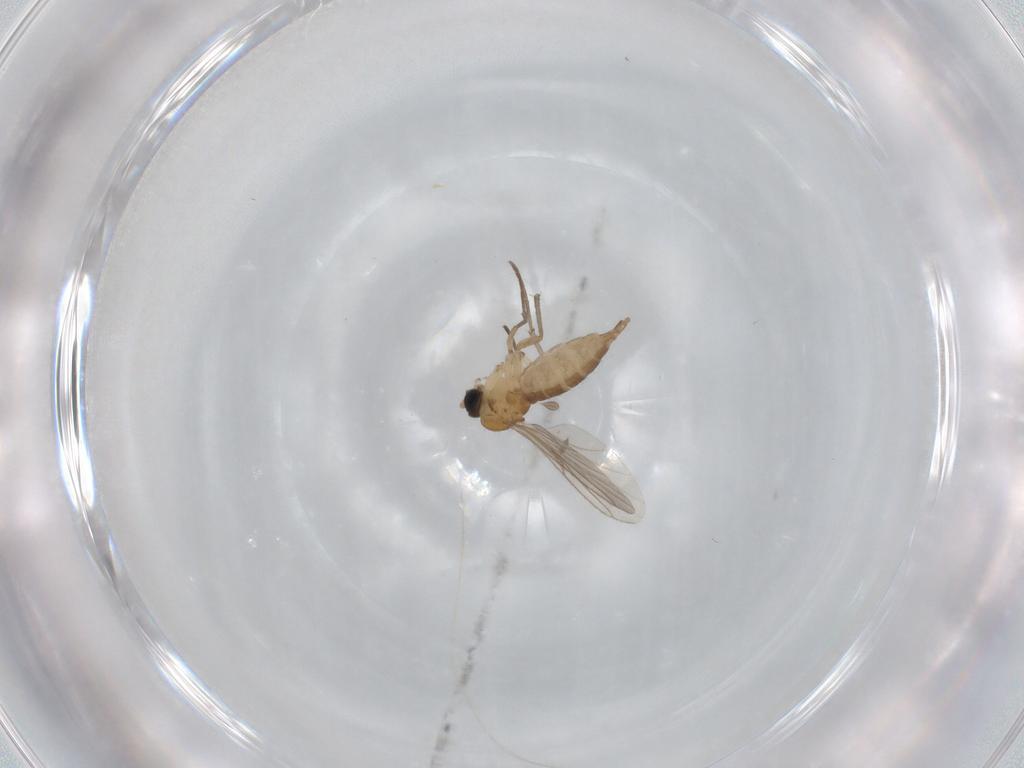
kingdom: Animalia
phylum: Arthropoda
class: Insecta
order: Diptera
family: Sciaridae
